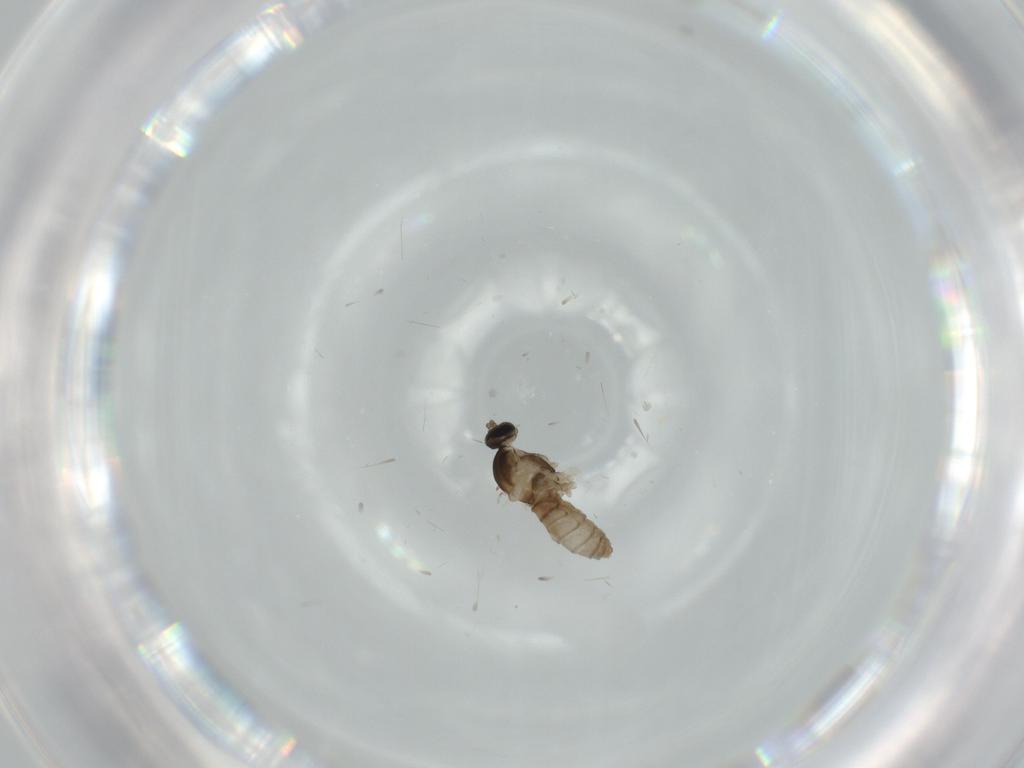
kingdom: Animalia
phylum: Arthropoda
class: Insecta
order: Diptera
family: Cecidomyiidae
